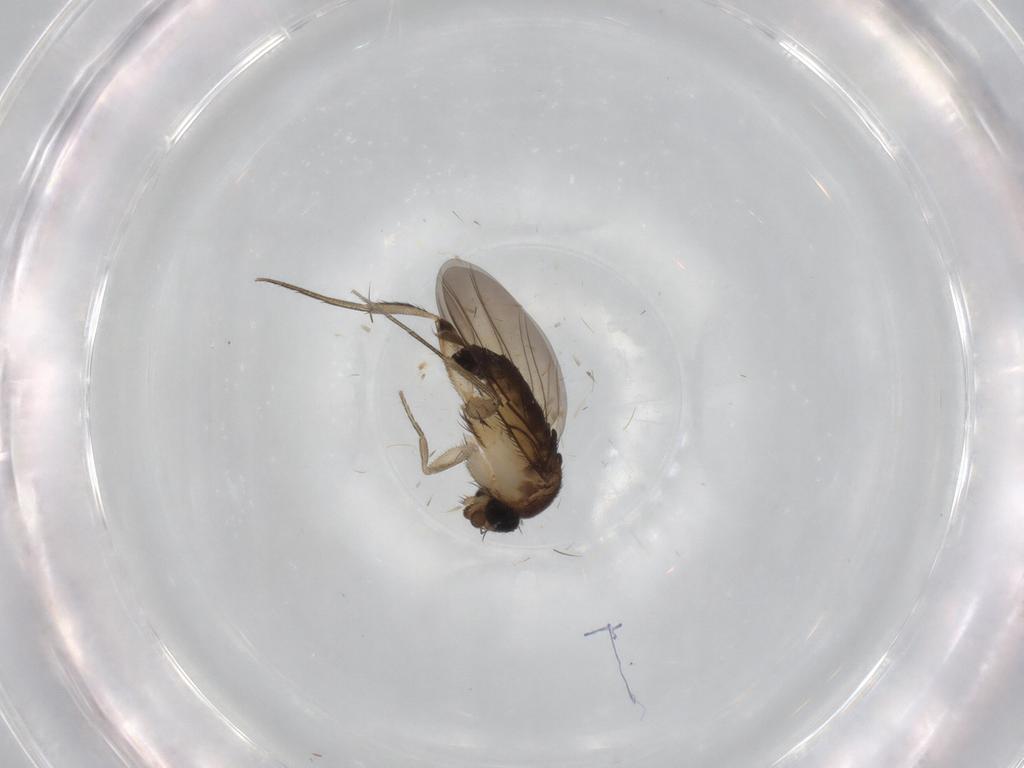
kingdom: Animalia
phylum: Arthropoda
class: Insecta
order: Diptera
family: Phoridae
